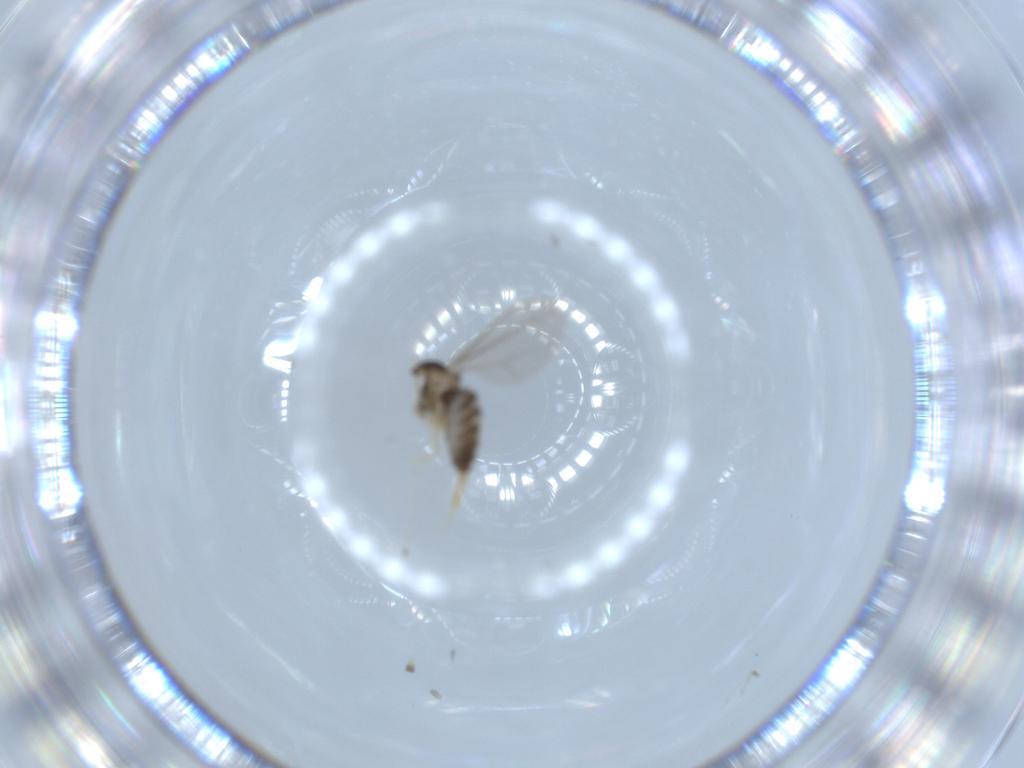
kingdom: Animalia
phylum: Arthropoda
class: Insecta
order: Diptera
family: Cecidomyiidae
